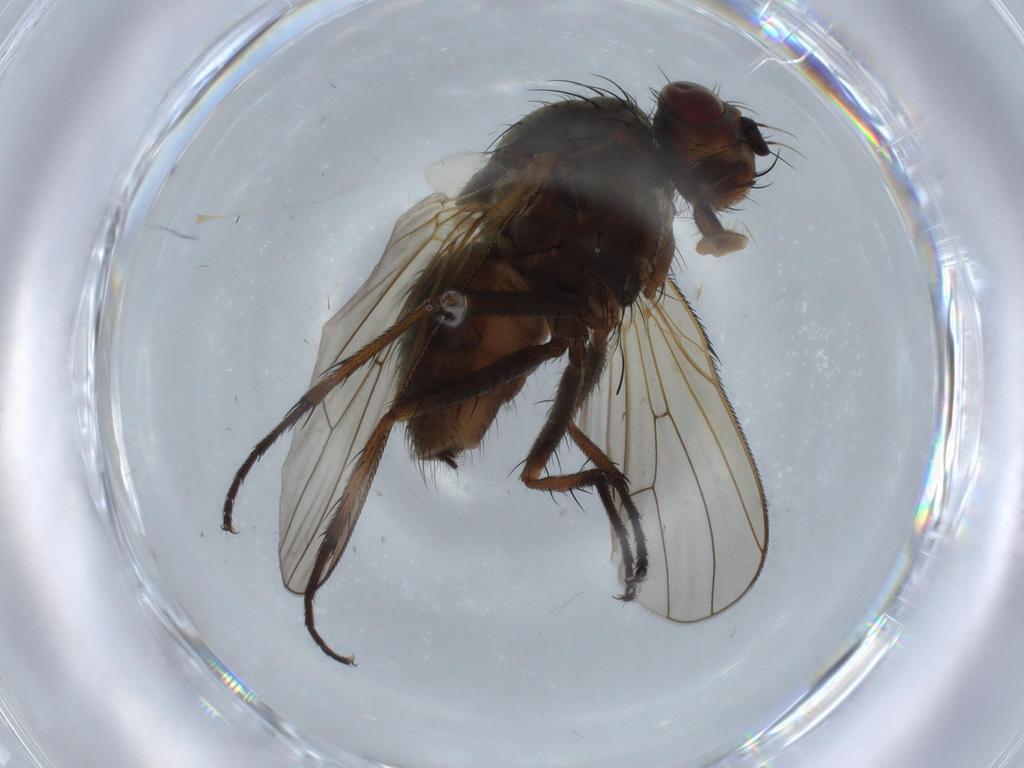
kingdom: Animalia
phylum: Arthropoda
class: Insecta
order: Diptera
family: Anthomyiidae
